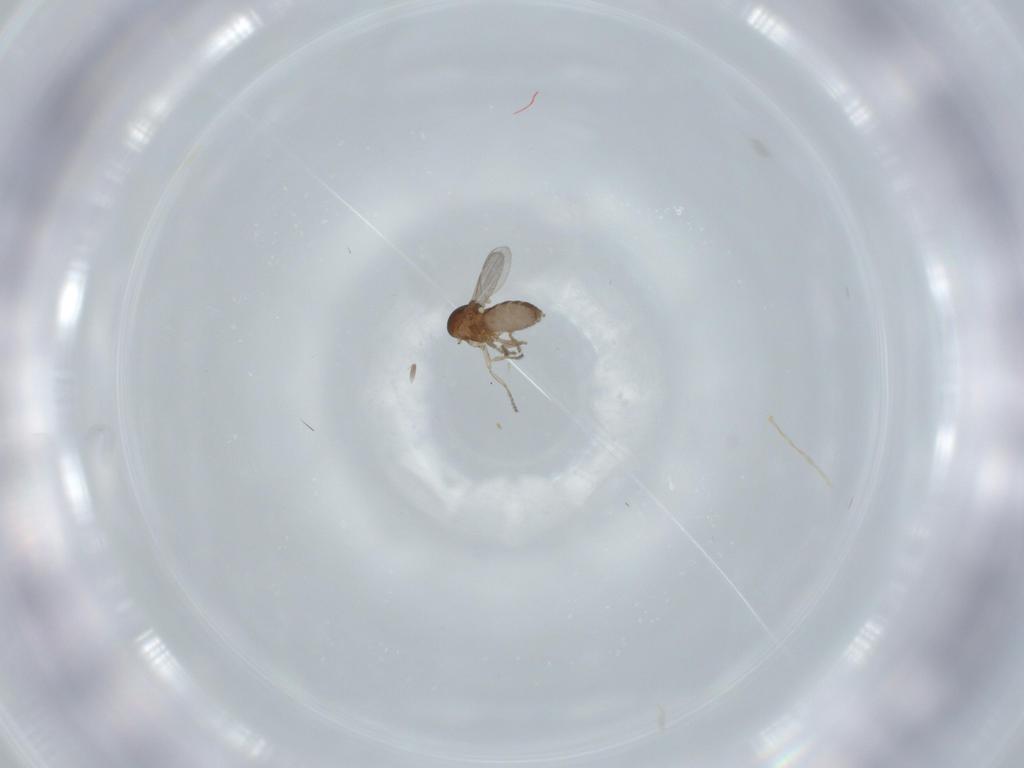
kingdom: Animalia
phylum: Arthropoda
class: Insecta
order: Diptera
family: Ceratopogonidae
